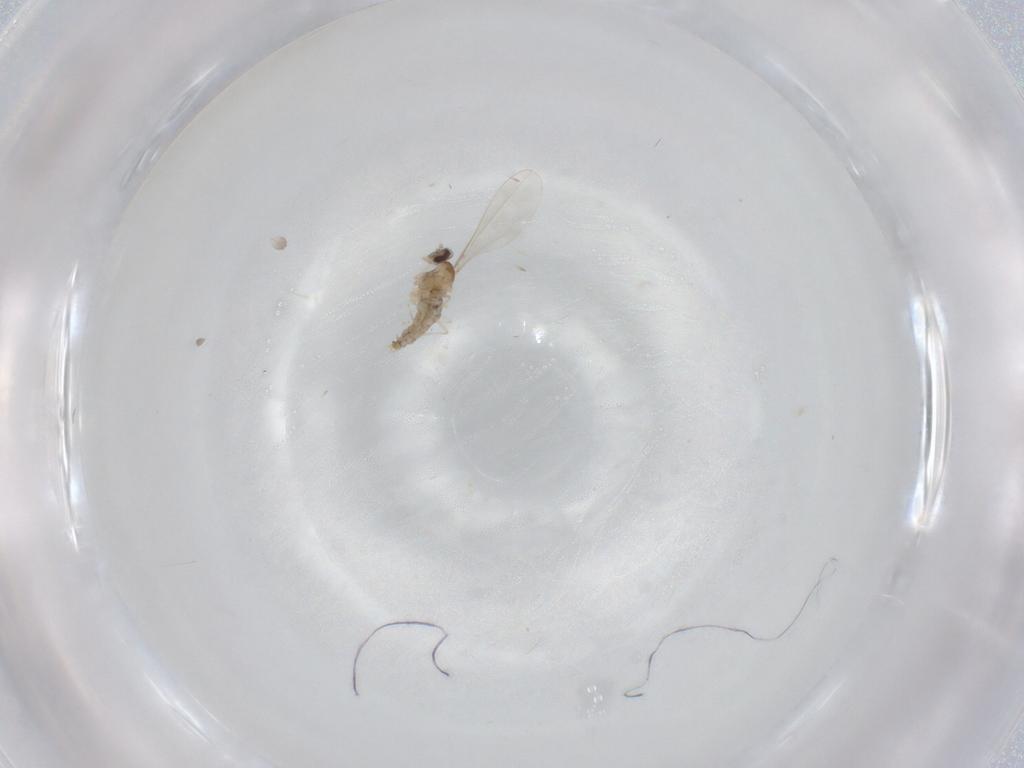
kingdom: Animalia
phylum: Arthropoda
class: Insecta
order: Diptera
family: Cecidomyiidae
